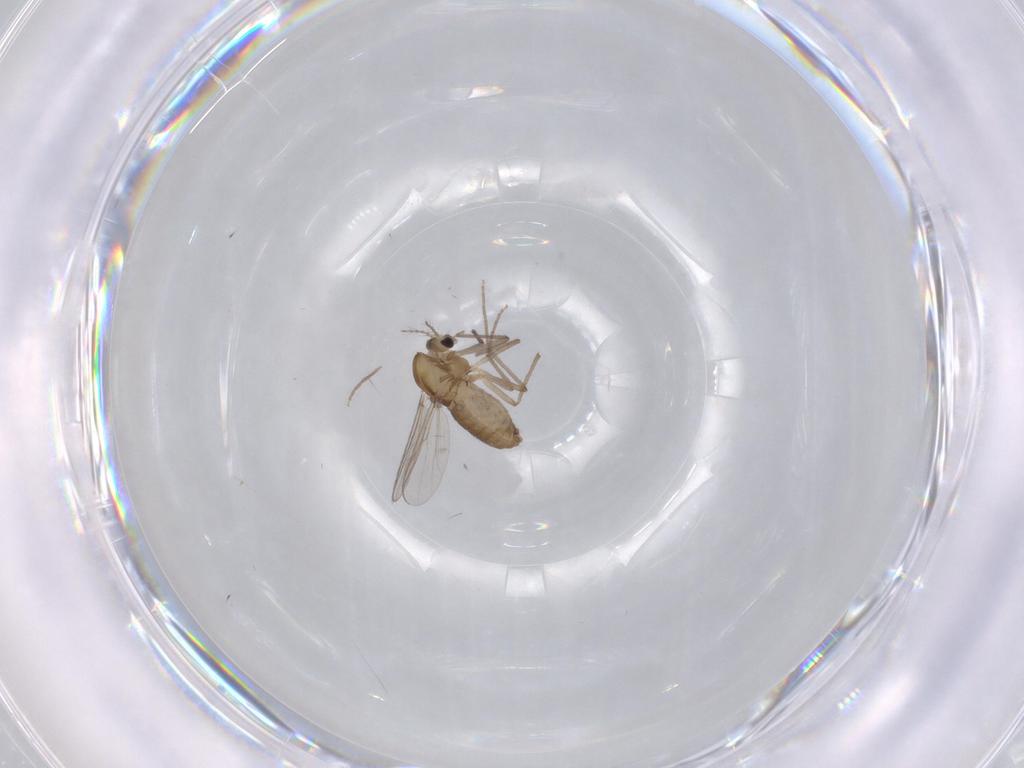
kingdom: Animalia
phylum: Arthropoda
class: Insecta
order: Diptera
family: Chironomidae
